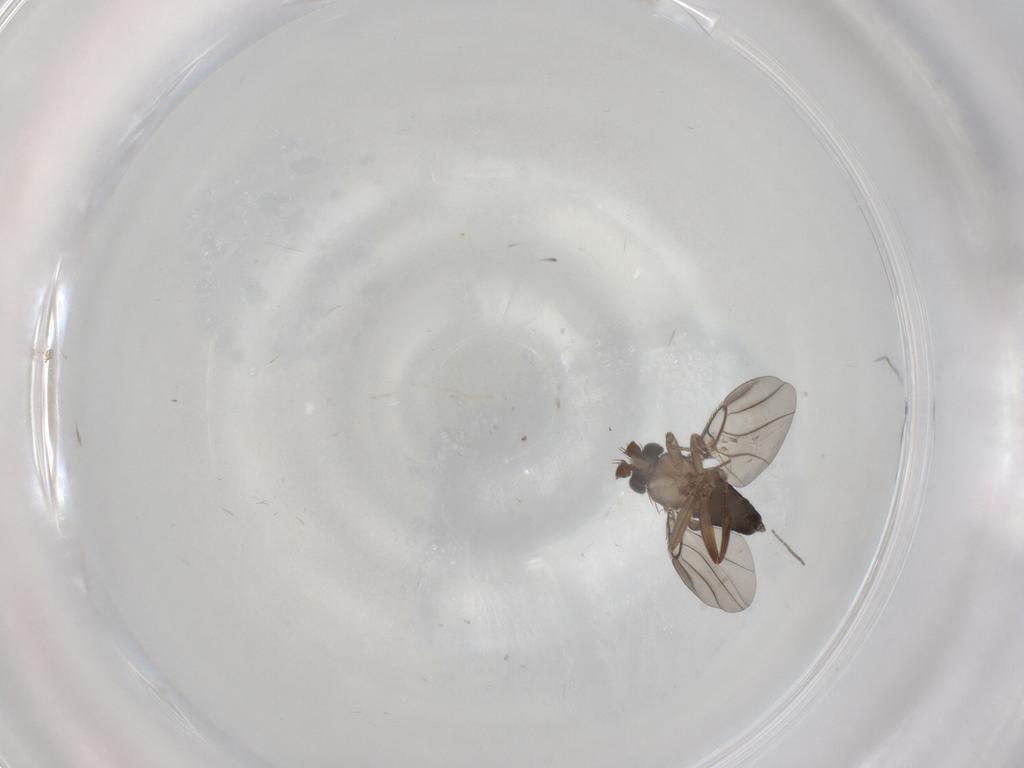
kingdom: Animalia
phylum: Arthropoda
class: Insecta
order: Diptera
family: Cecidomyiidae
